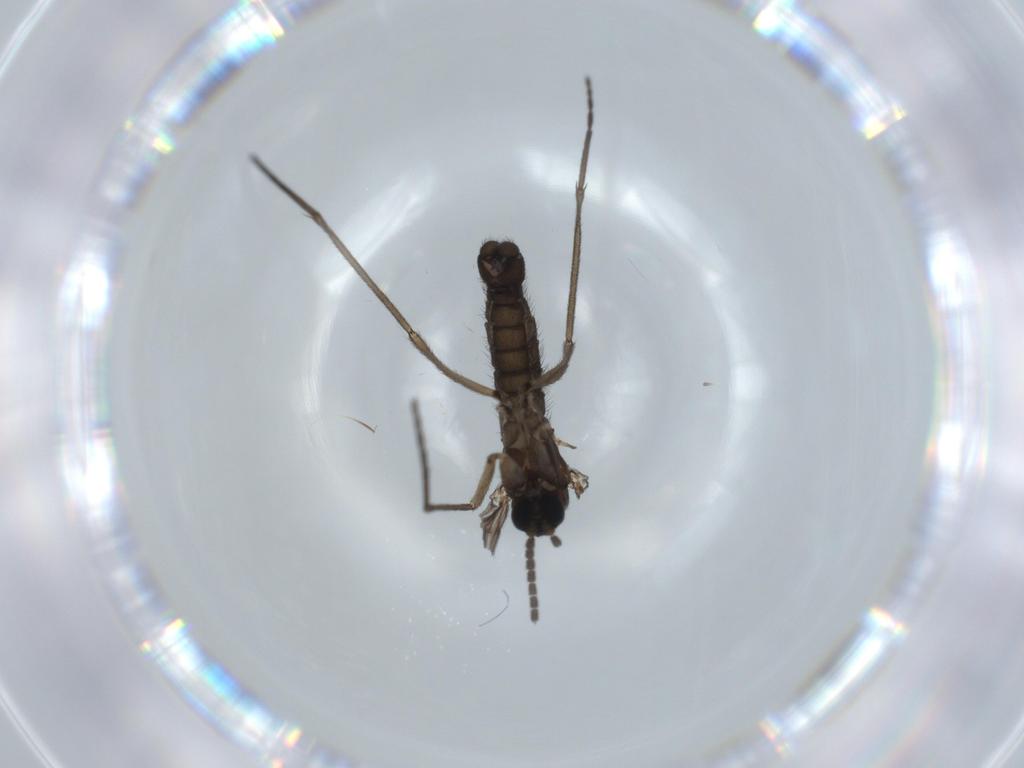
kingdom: Animalia
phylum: Arthropoda
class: Insecta
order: Diptera
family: Sciaridae
